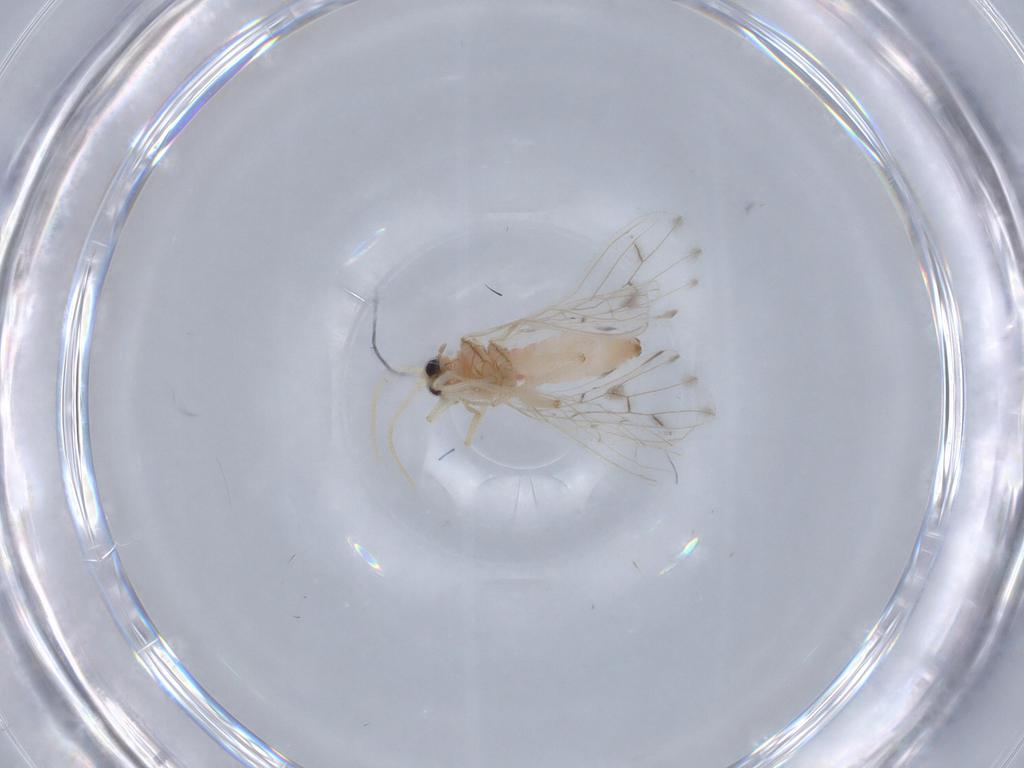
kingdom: Animalia
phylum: Arthropoda
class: Insecta
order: Neuroptera
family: Coniopterygidae
